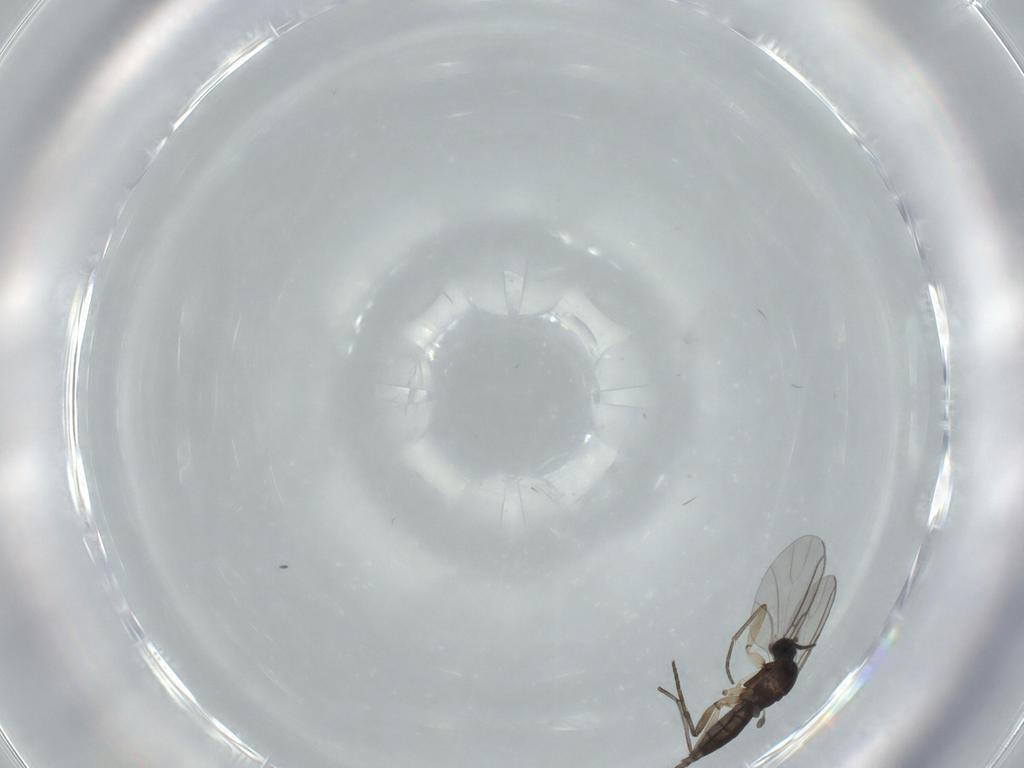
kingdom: Animalia
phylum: Arthropoda
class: Insecta
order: Diptera
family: Sciaridae
